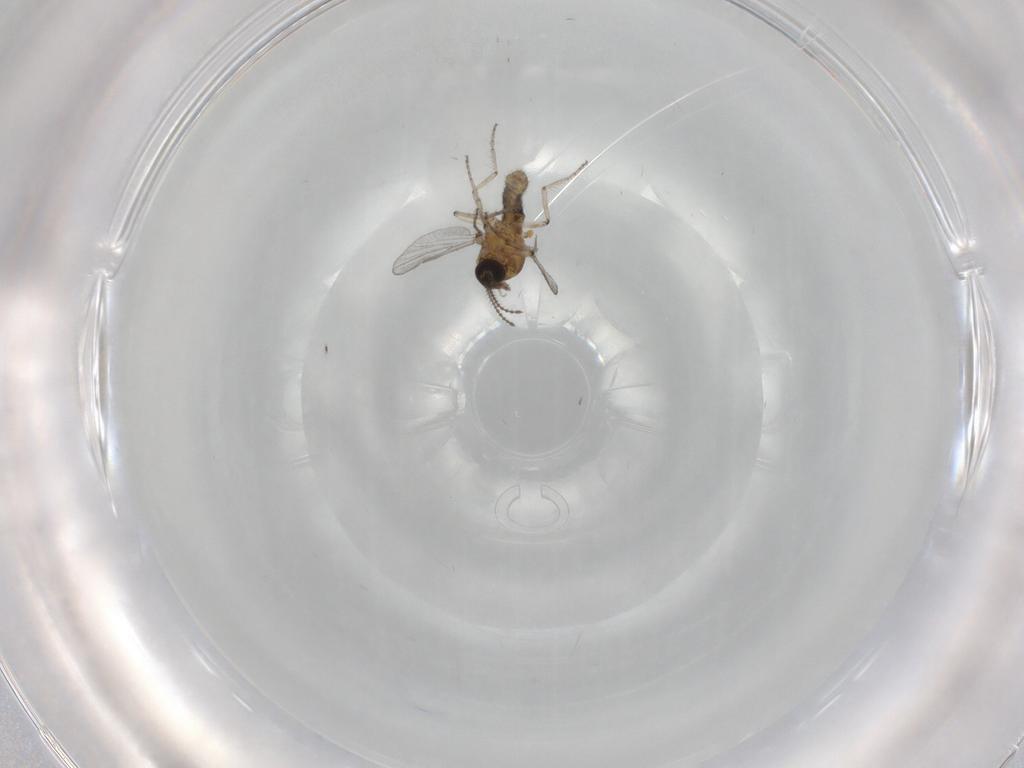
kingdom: Animalia
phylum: Arthropoda
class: Insecta
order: Diptera
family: Ceratopogonidae
